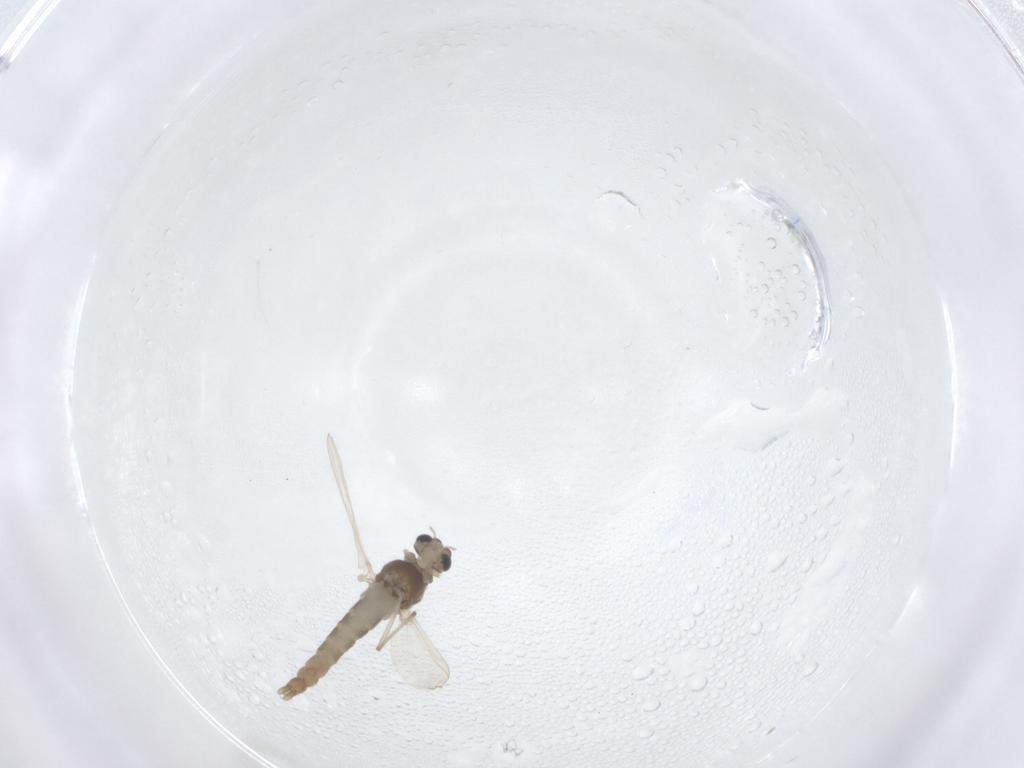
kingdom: Animalia
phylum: Arthropoda
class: Insecta
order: Diptera
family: Chironomidae
